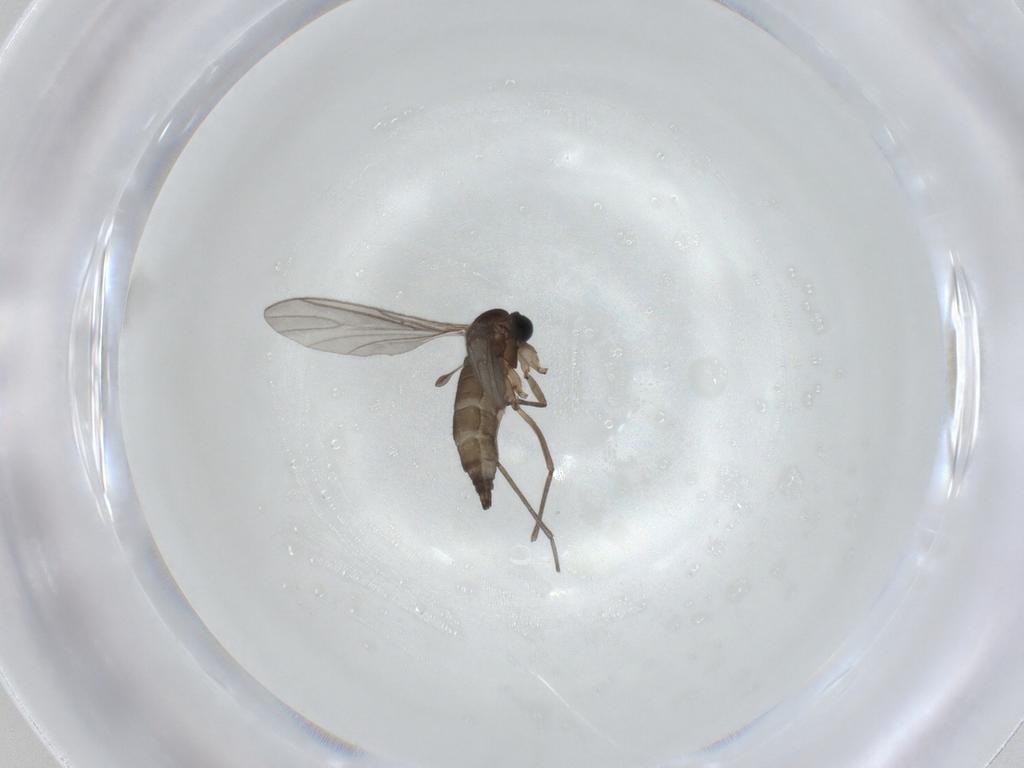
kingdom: Animalia
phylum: Arthropoda
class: Insecta
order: Diptera
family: Sciaridae
